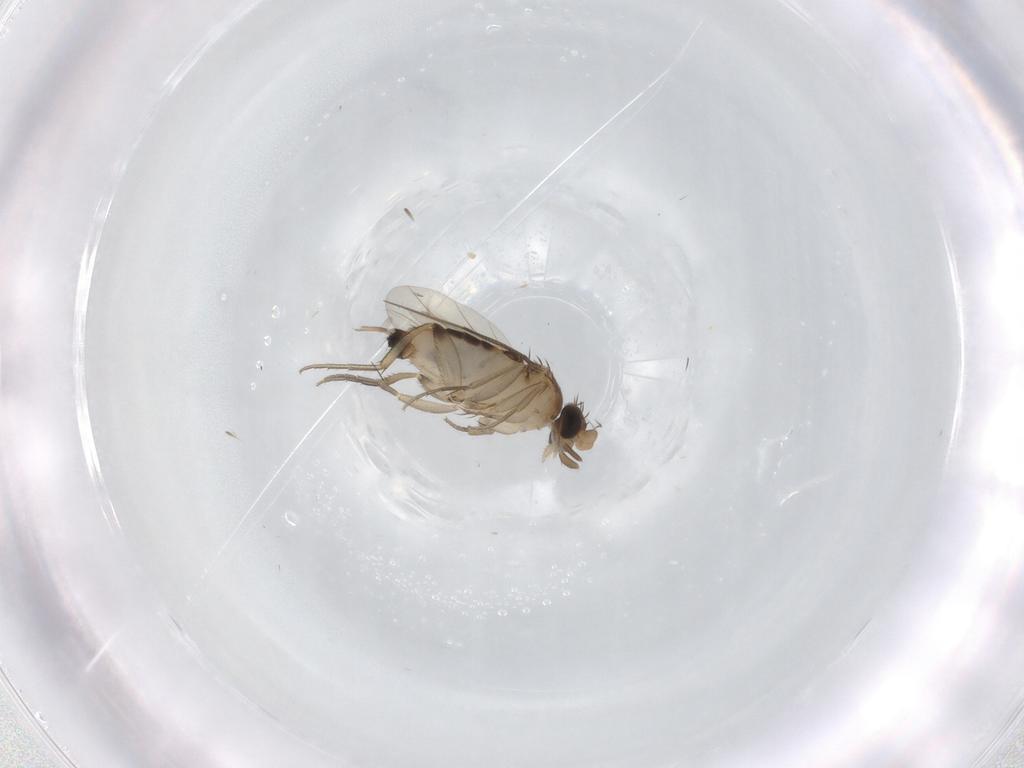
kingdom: Animalia
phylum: Arthropoda
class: Insecta
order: Diptera
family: Phoridae
